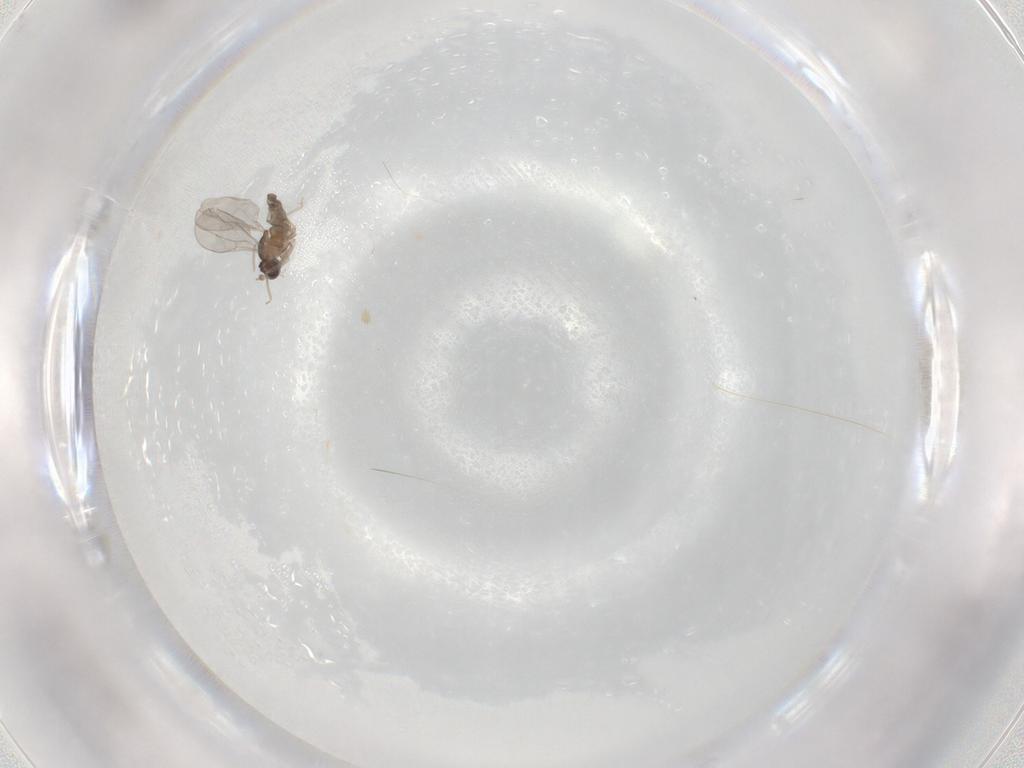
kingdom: Animalia
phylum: Arthropoda
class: Insecta
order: Diptera
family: Cecidomyiidae
